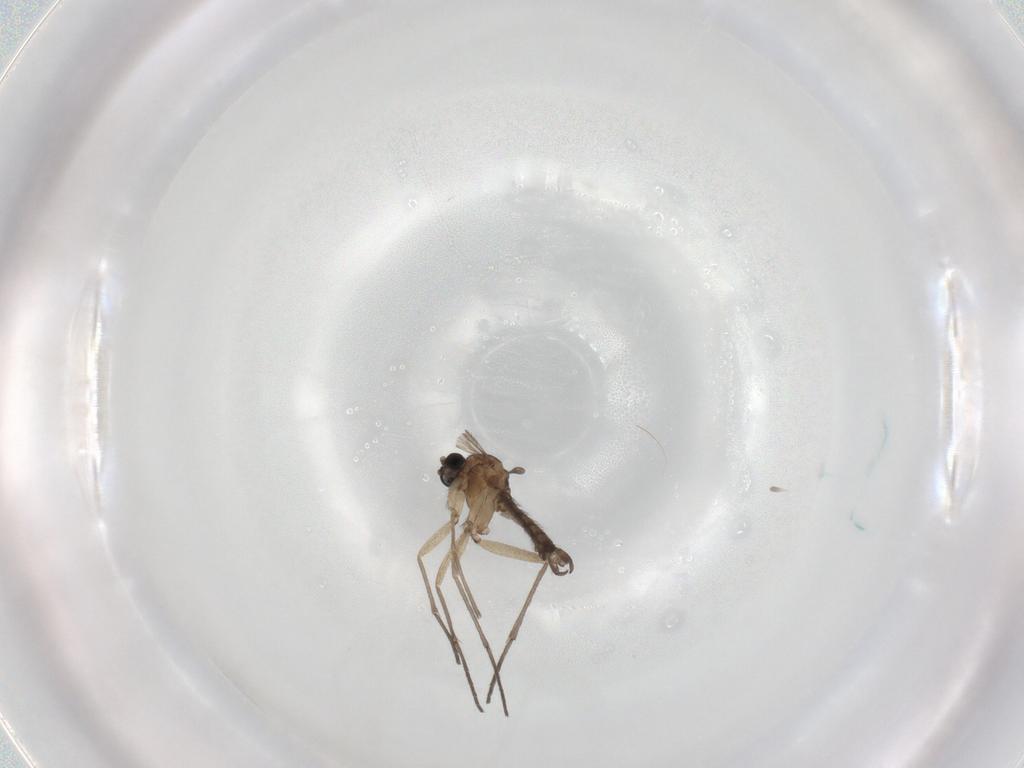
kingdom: Animalia
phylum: Arthropoda
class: Insecta
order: Diptera
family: Sciaridae
